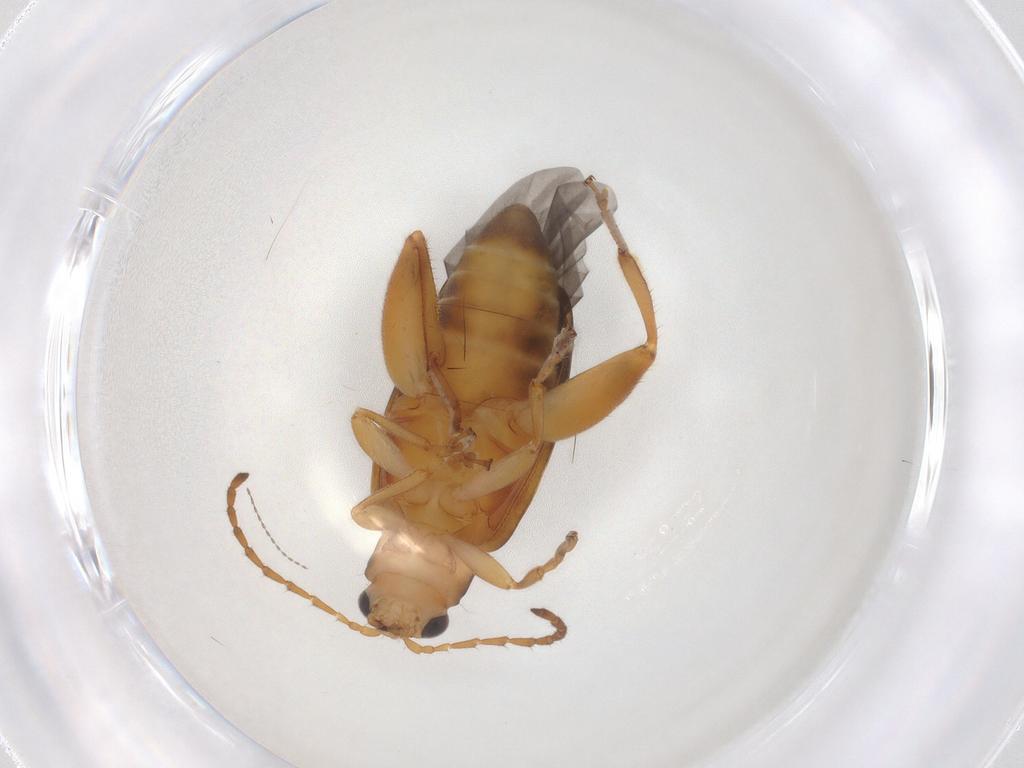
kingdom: Animalia
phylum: Arthropoda
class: Insecta
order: Coleoptera
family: Chrysomelidae
